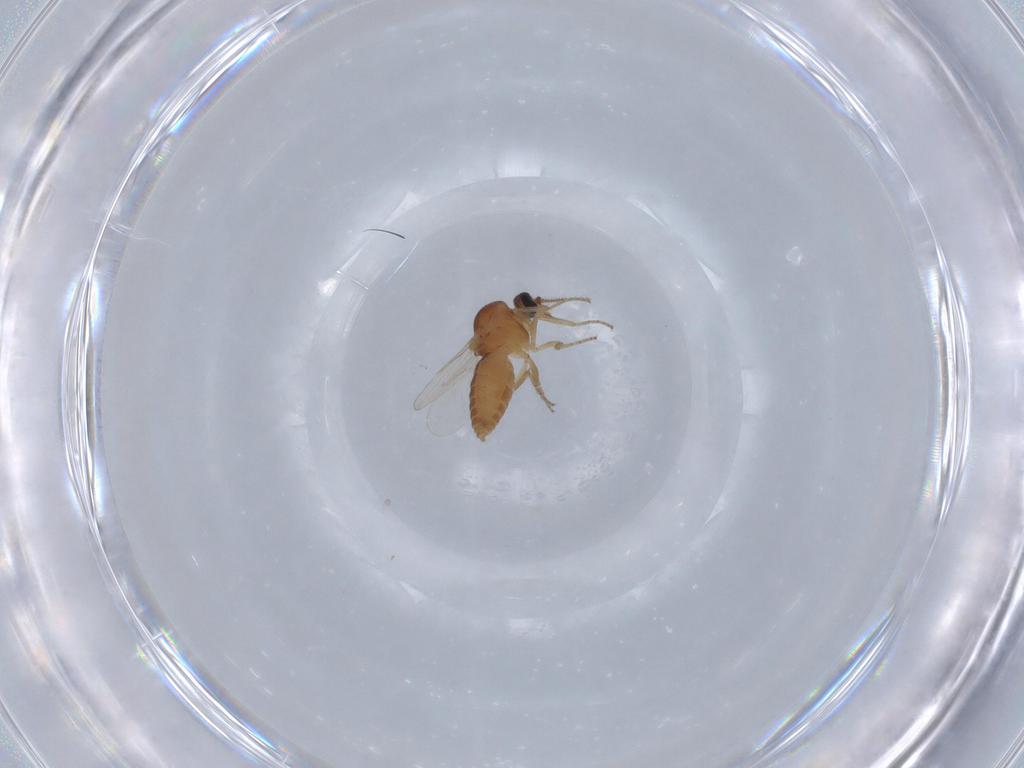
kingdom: Animalia
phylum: Arthropoda
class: Insecta
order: Diptera
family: Ceratopogonidae
